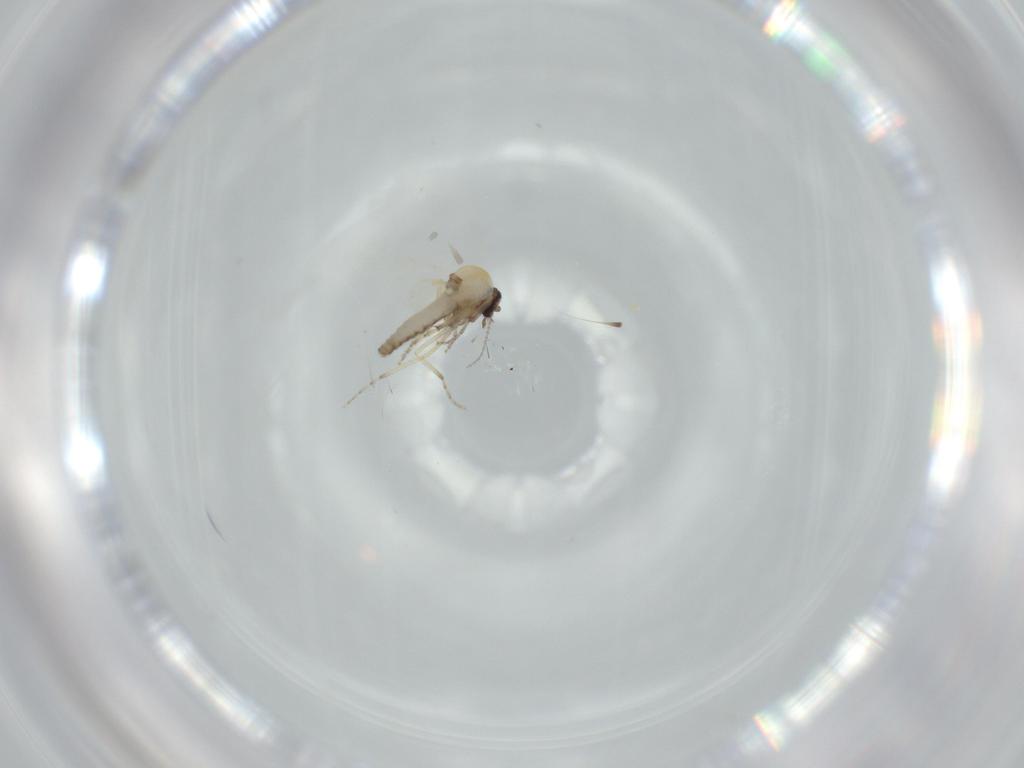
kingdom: Animalia
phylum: Arthropoda
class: Insecta
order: Diptera
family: Ceratopogonidae
